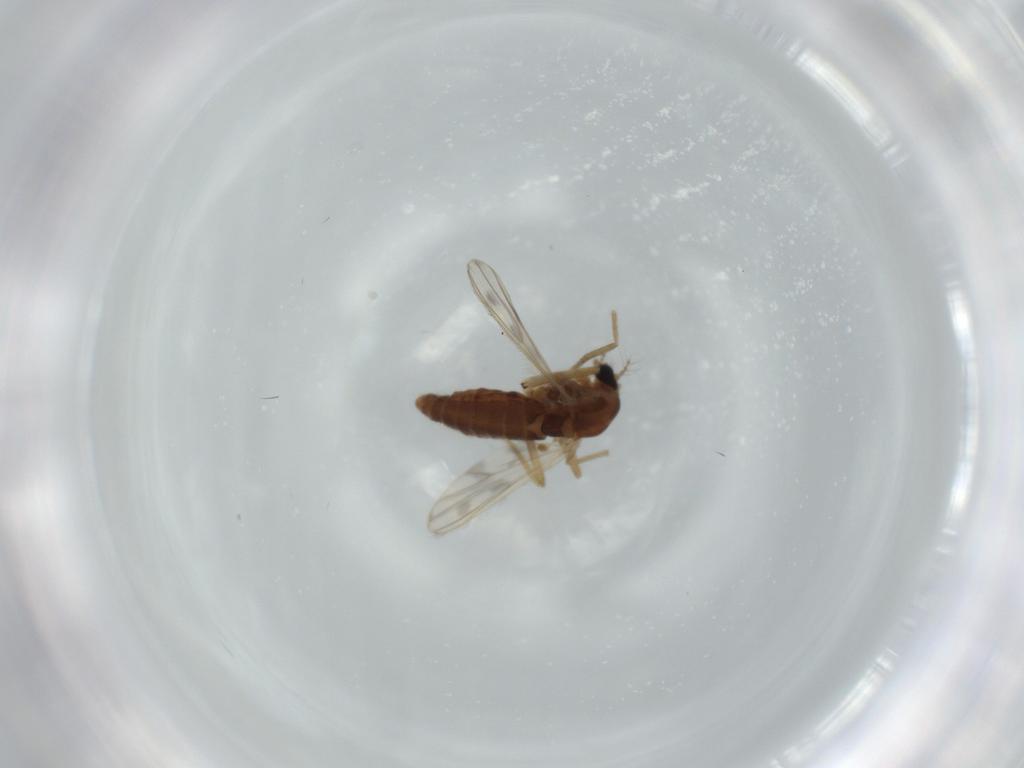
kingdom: Animalia
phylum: Arthropoda
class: Insecta
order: Diptera
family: Chironomidae
